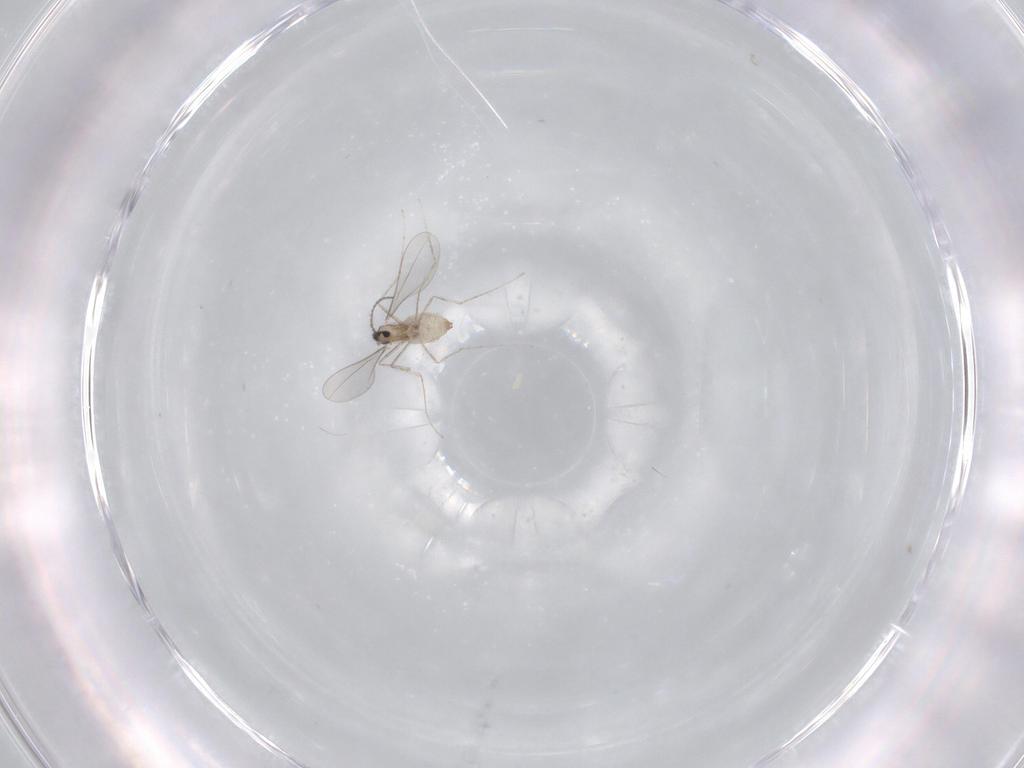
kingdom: Animalia
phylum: Arthropoda
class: Insecta
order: Diptera
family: Cecidomyiidae
